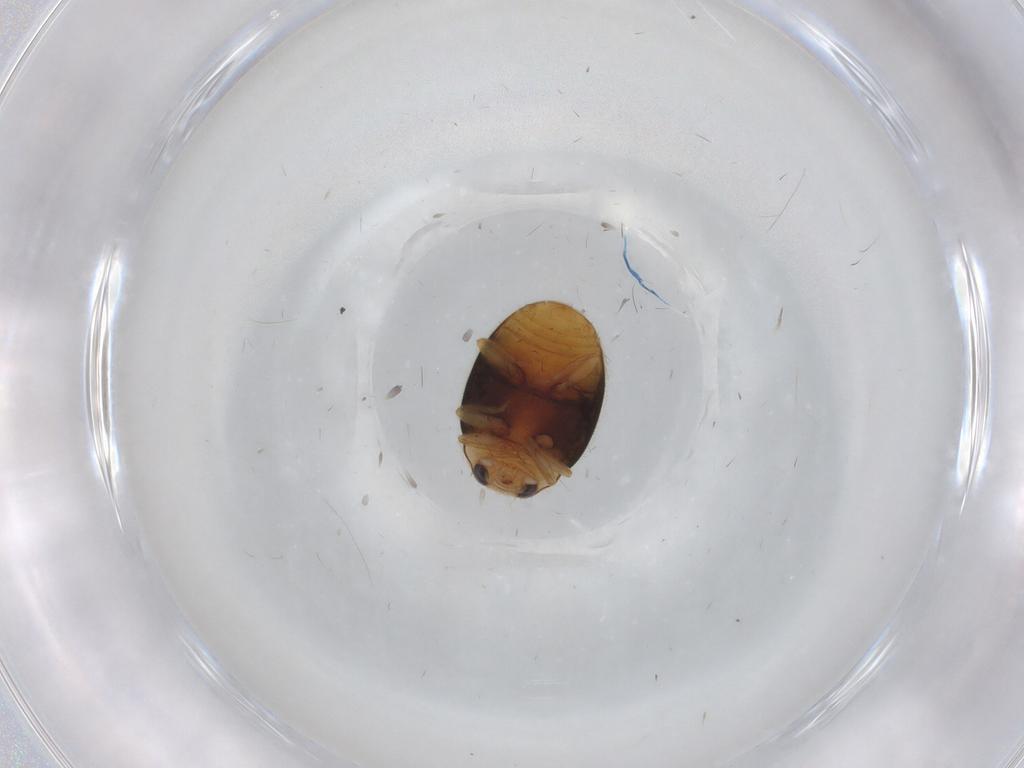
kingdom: Animalia
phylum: Arthropoda
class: Insecta
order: Coleoptera
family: Coccinellidae
